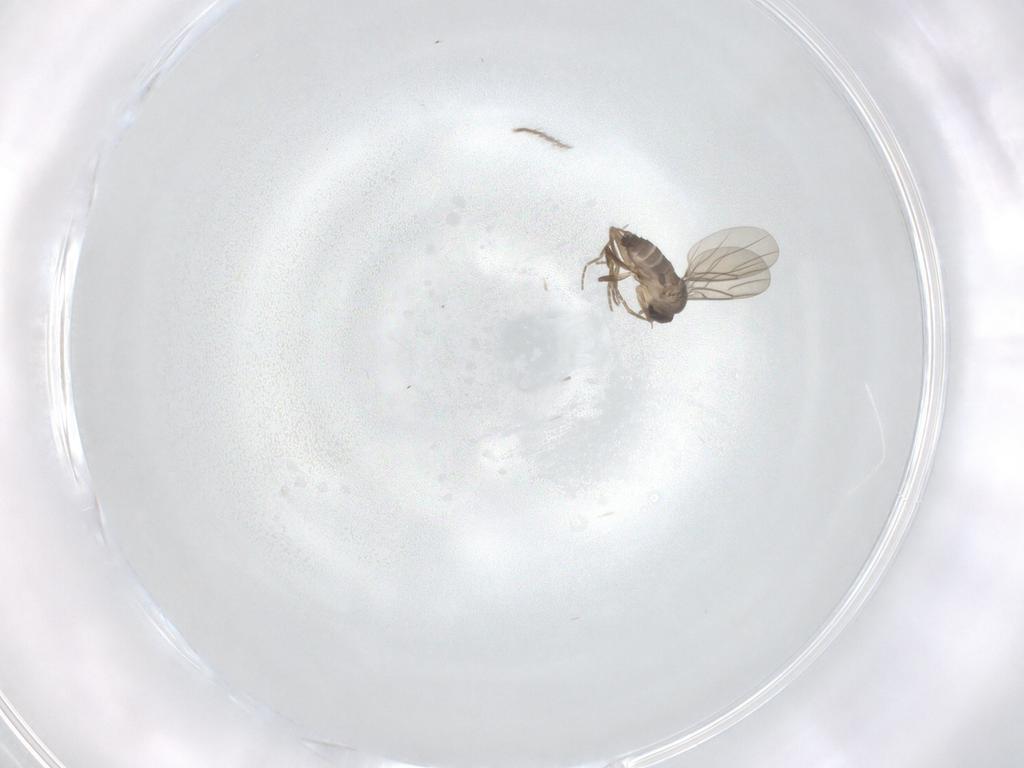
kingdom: Animalia
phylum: Arthropoda
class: Insecta
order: Diptera
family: Ceratopogonidae
